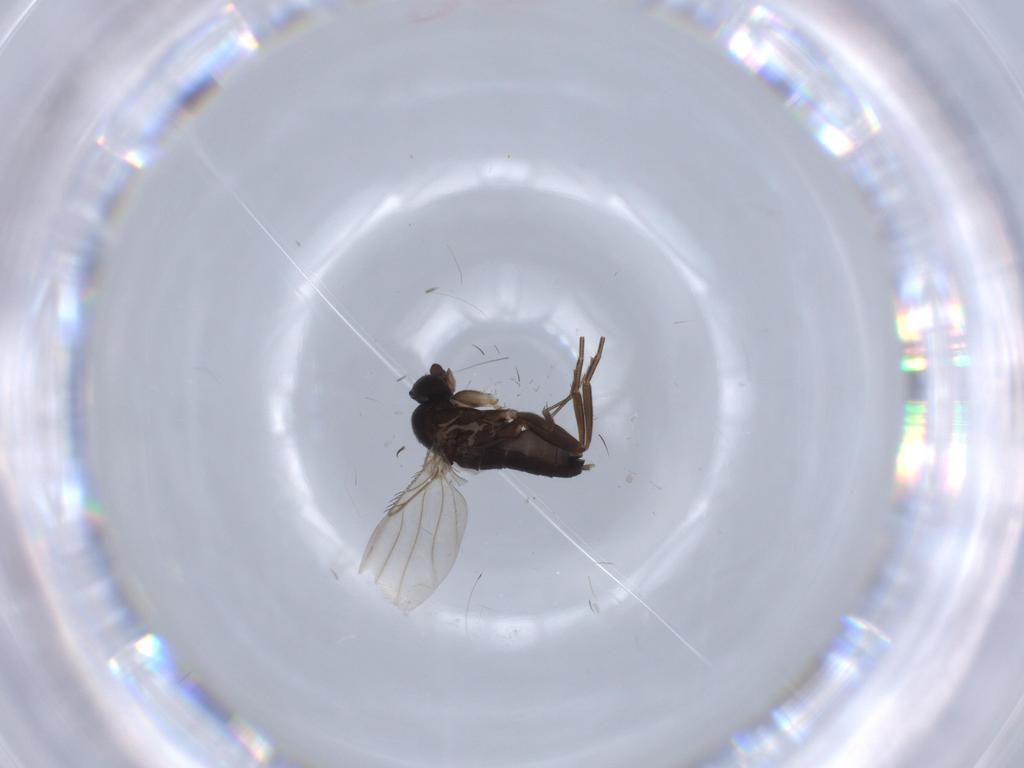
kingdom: Animalia
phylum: Arthropoda
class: Insecta
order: Diptera
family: Phoridae
